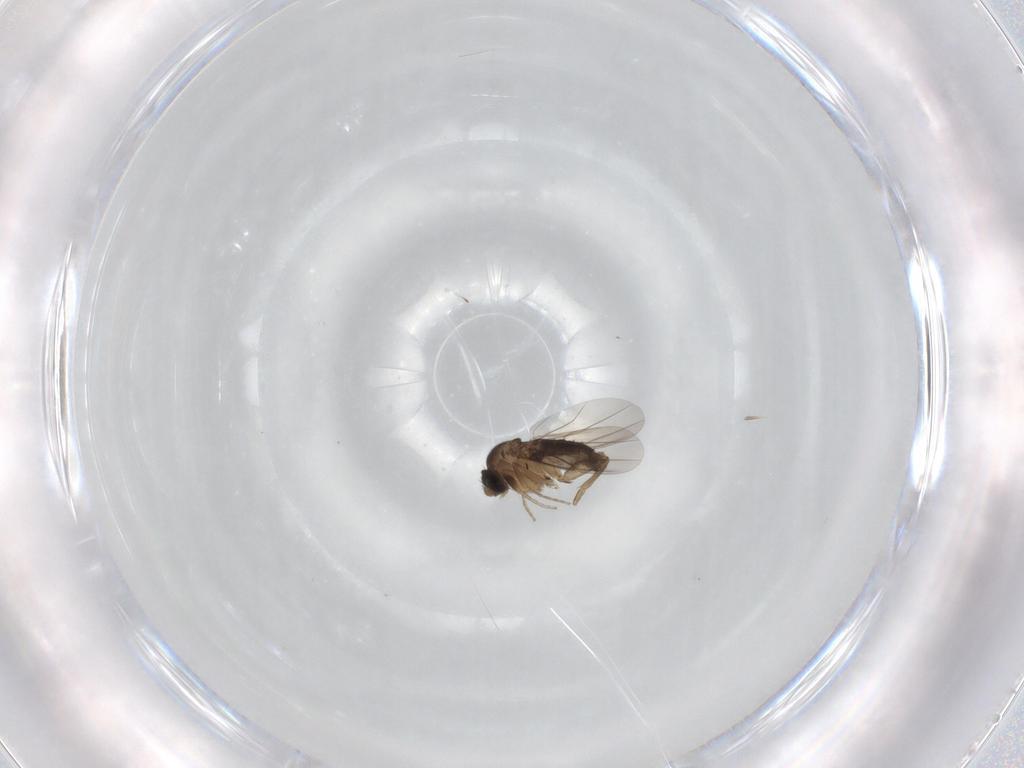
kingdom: Animalia
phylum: Arthropoda
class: Insecta
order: Diptera
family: Phoridae
